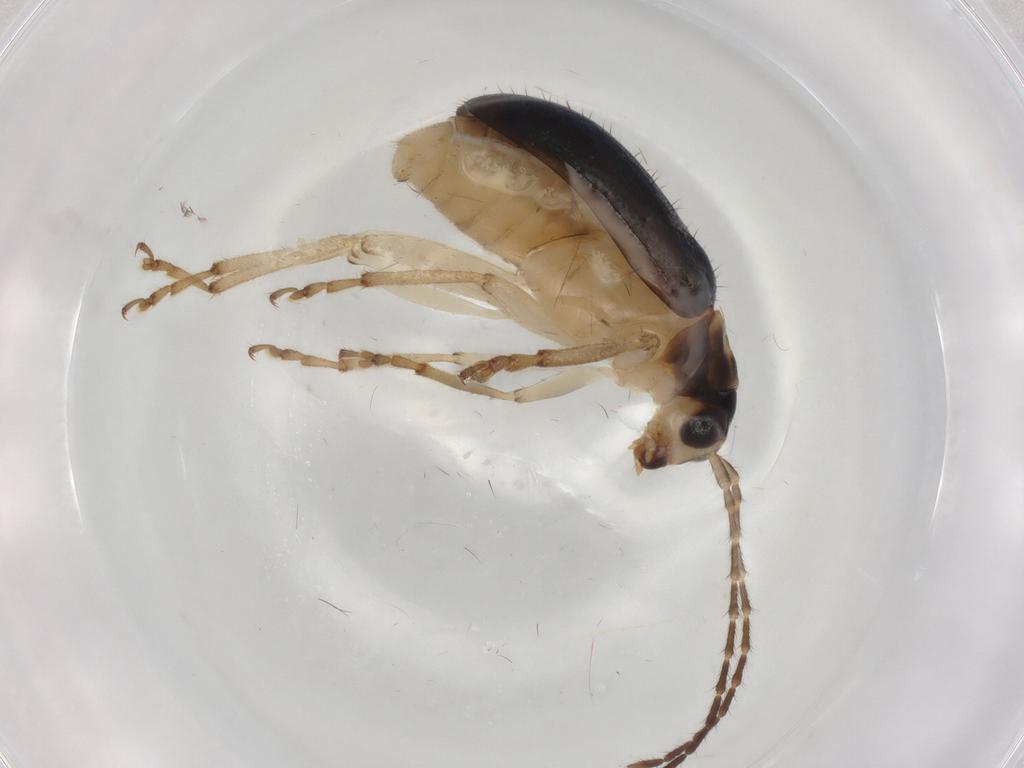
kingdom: Animalia
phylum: Arthropoda
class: Insecta
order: Coleoptera
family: Chrysomelidae
